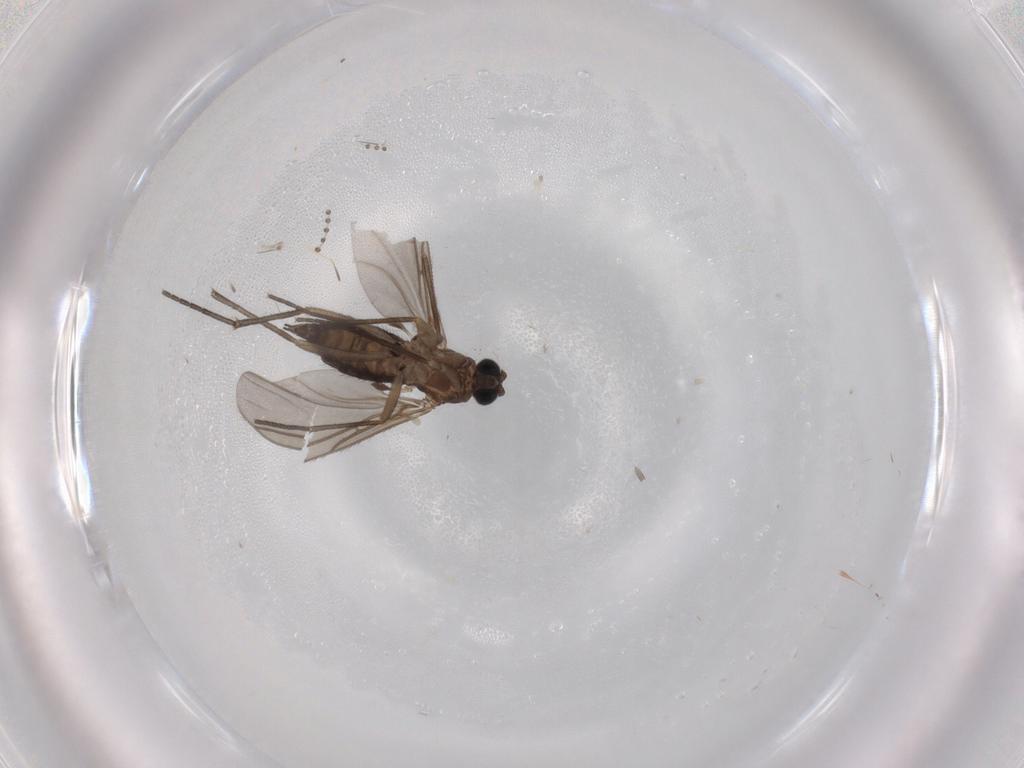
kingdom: Animalia
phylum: Arthropoda
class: Insecta
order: Diptera
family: Sciaridae
